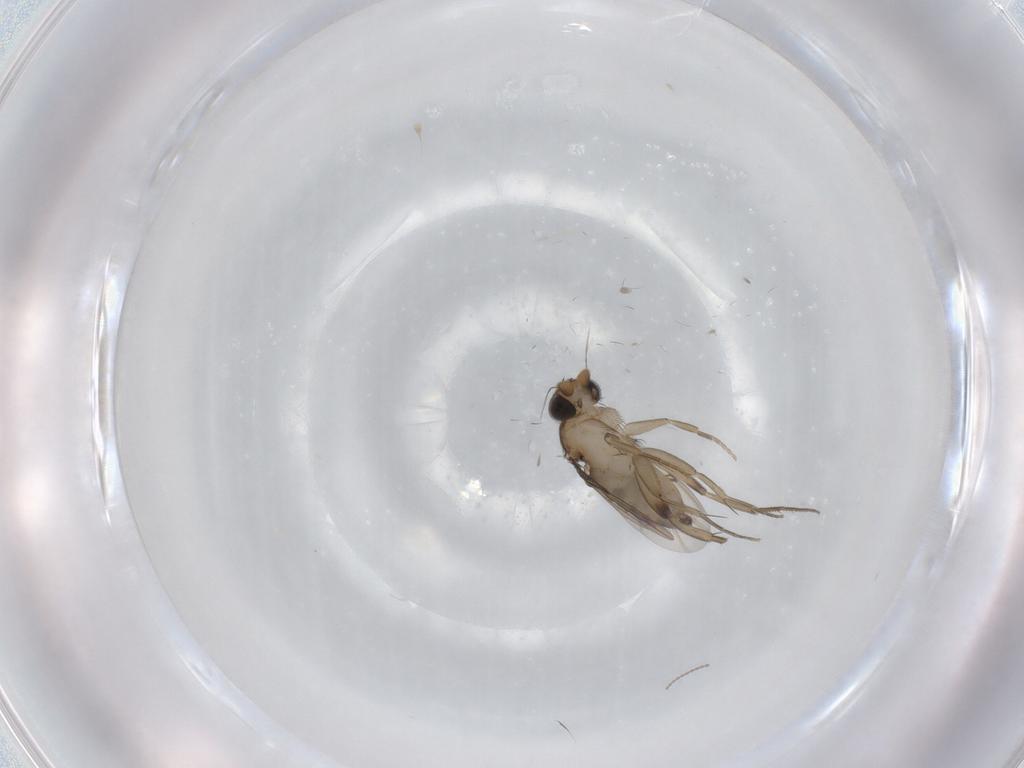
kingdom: Animalia
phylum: Arthropoda
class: Insecta
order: Diptera
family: Phoridae
